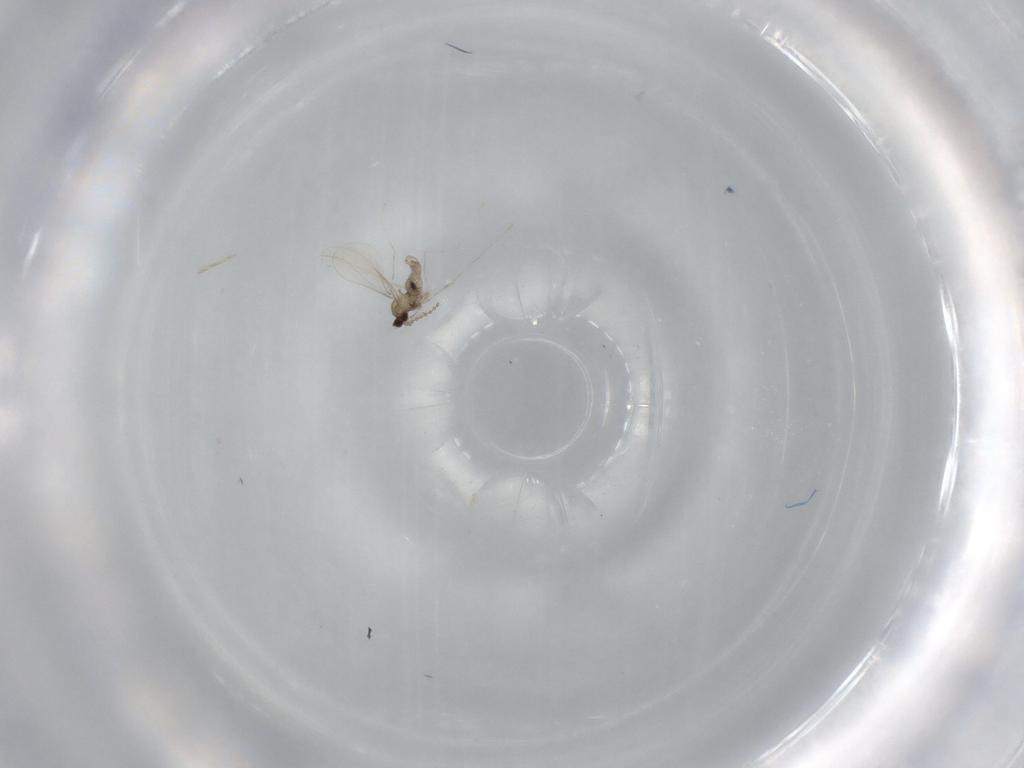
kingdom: Animalia
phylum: Arthropoda
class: Insecta
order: Diptera
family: Cecidomyiidae
